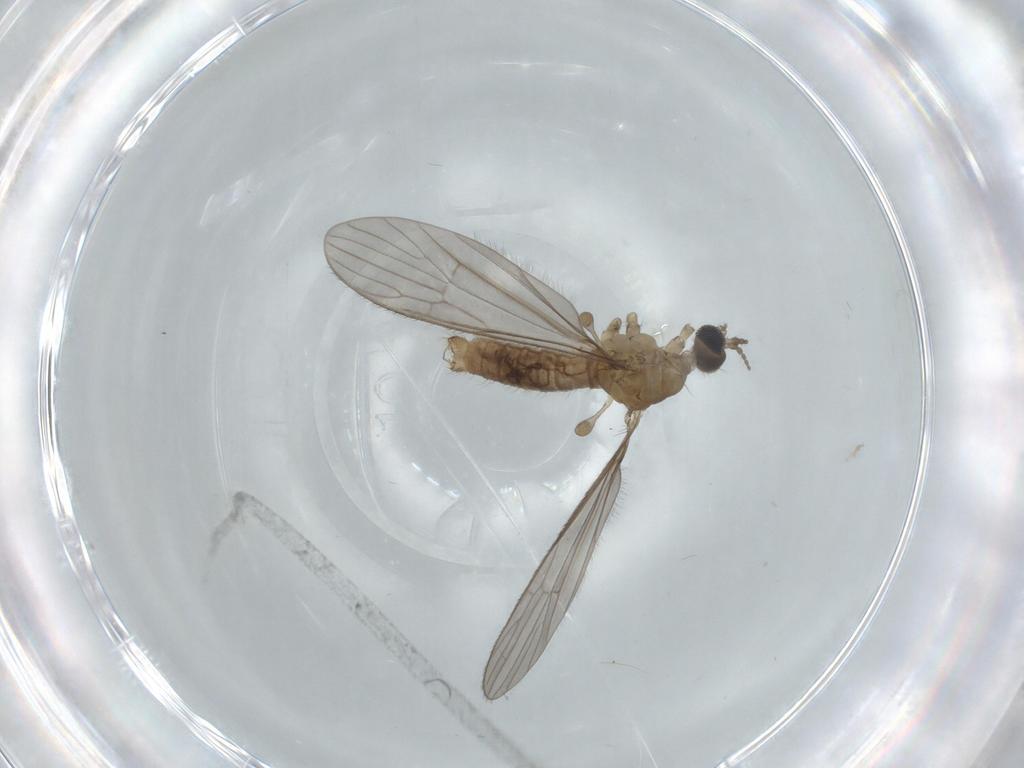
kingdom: Animalia
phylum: Arthropoda
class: Insecta
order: Diptera
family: Limoniidae
